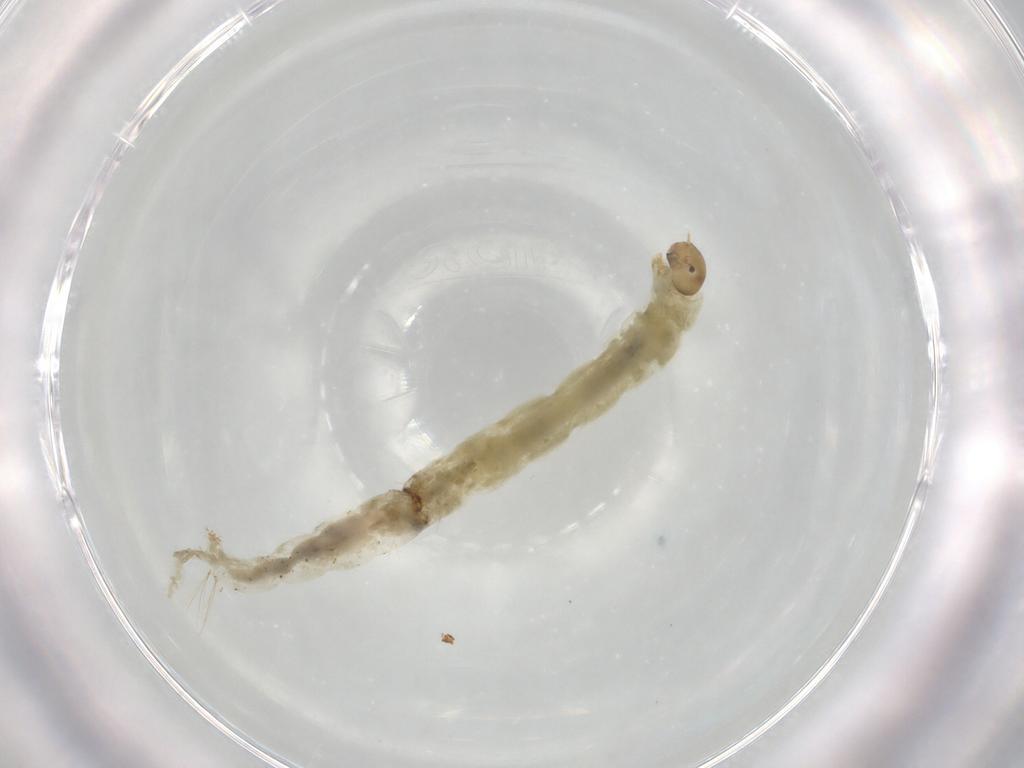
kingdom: Animalia
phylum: Arthropoda
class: Insecta
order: Diptera
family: Chironomidae
